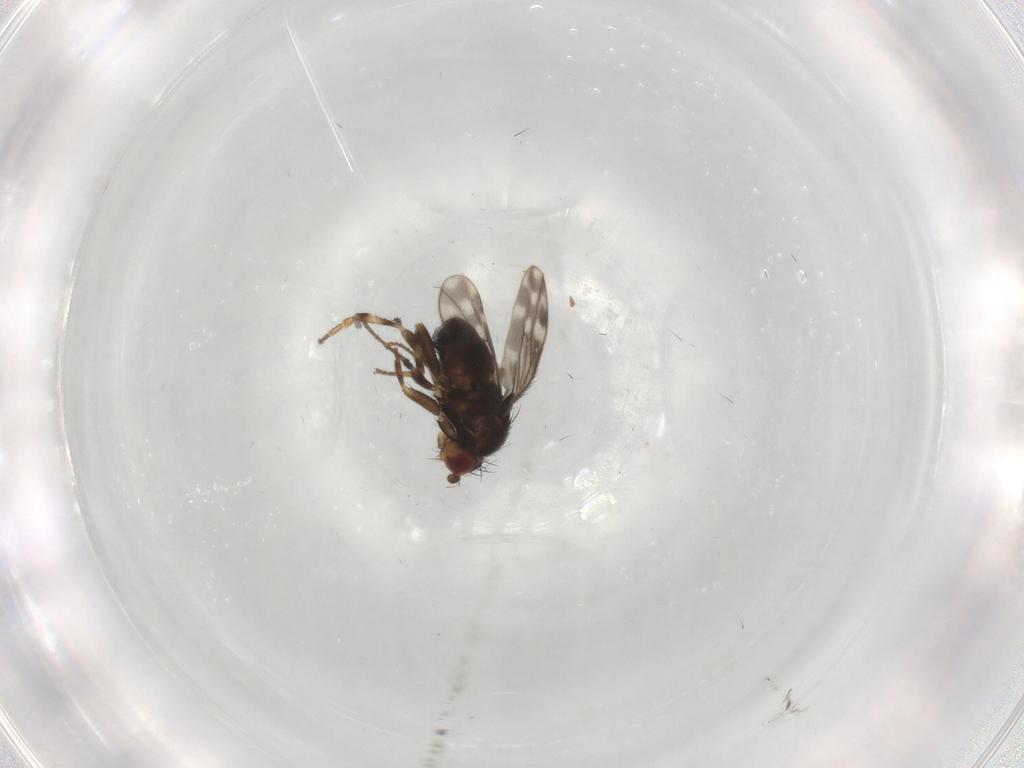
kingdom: Animalia
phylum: Arthropoda
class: Insecta
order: Diptera
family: Sphaeroceridae
